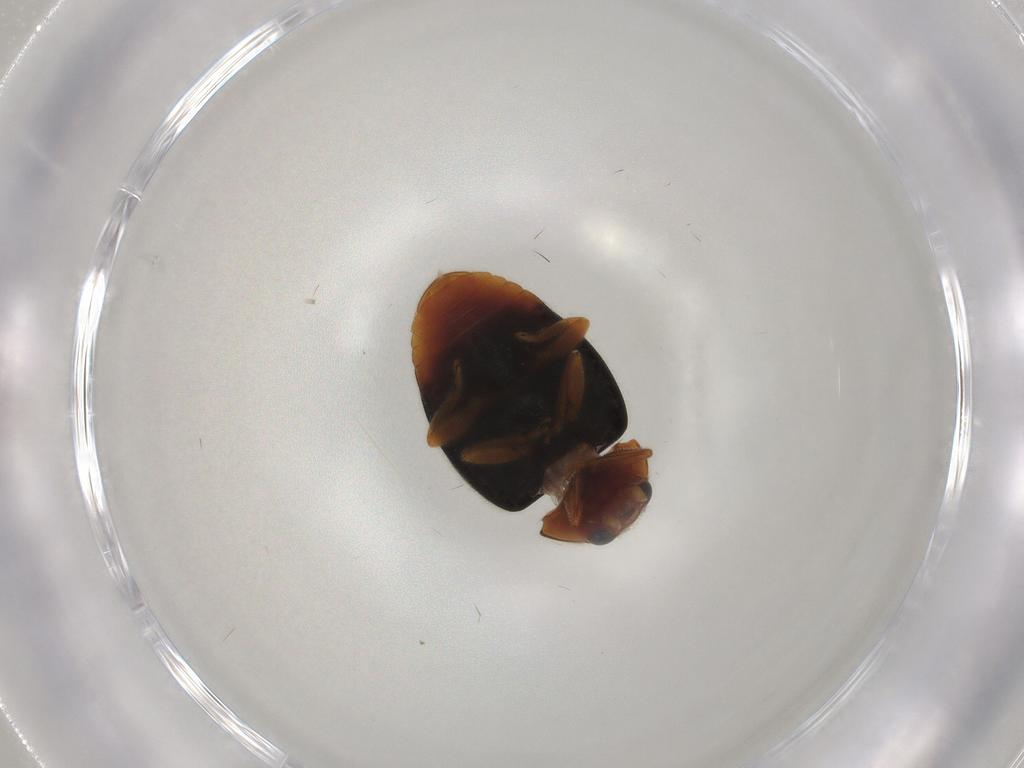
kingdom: Animalia
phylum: Arthropoda
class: Insecta
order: Coleoptera
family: Coccinellidae
